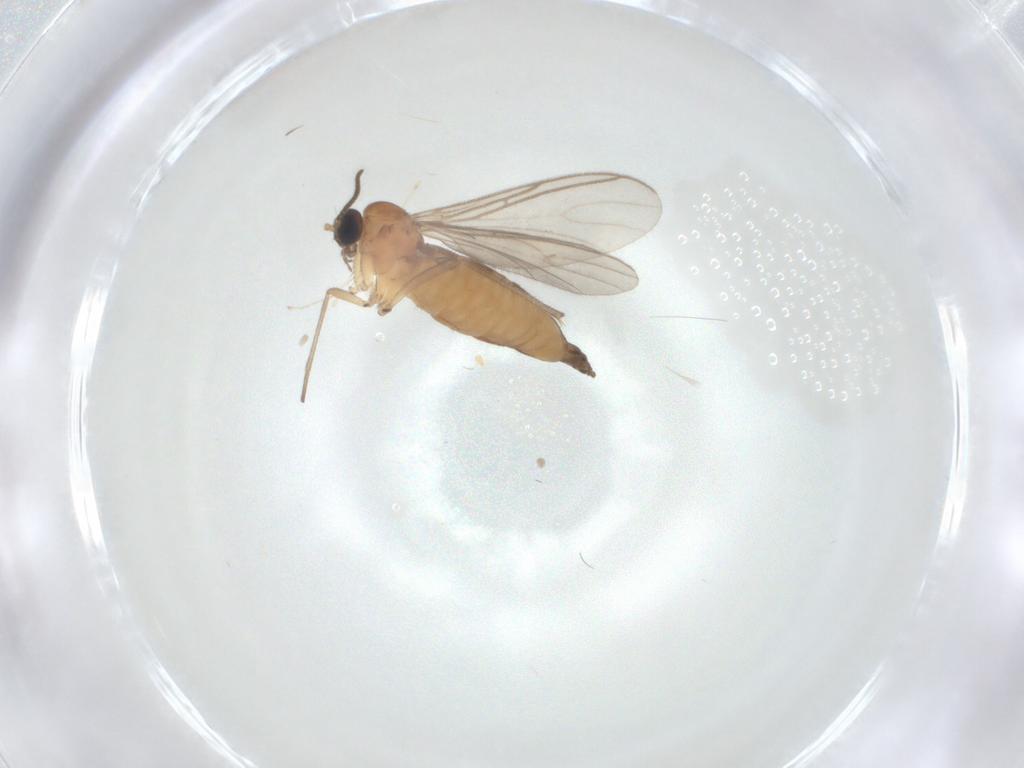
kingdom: Animalia
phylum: Arthropoda
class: Insecta
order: Diptera
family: Sciaridae
